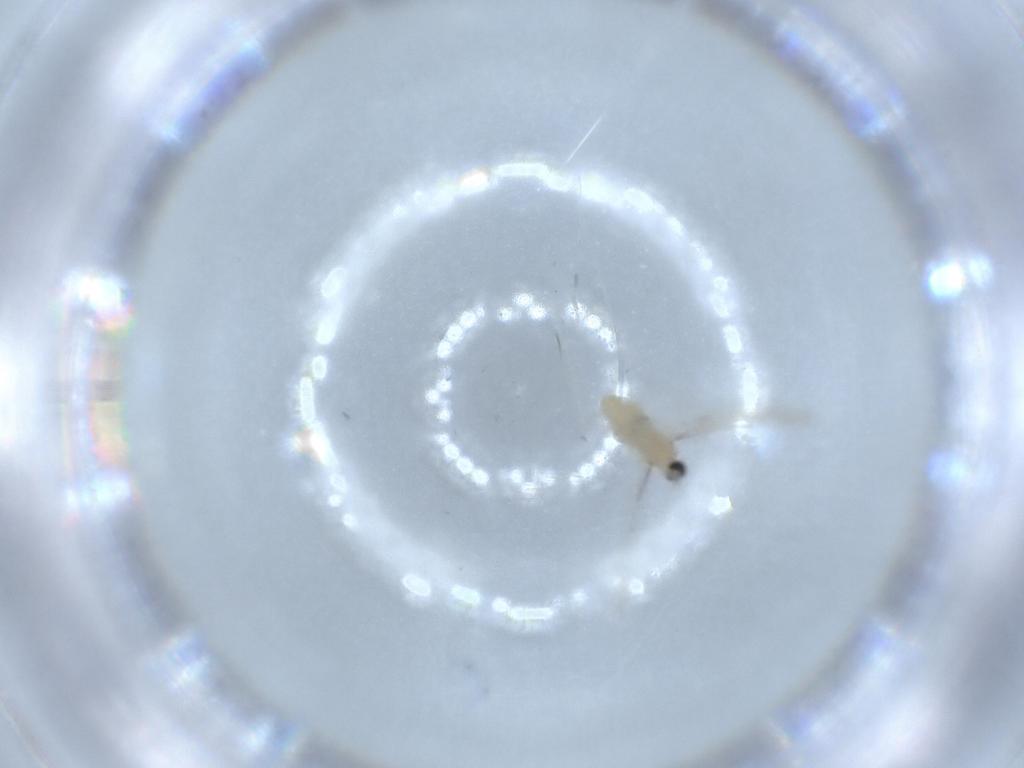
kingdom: Animalia
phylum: Arthropoda
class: Insecta
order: Diptera
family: Cecidomyiidae
